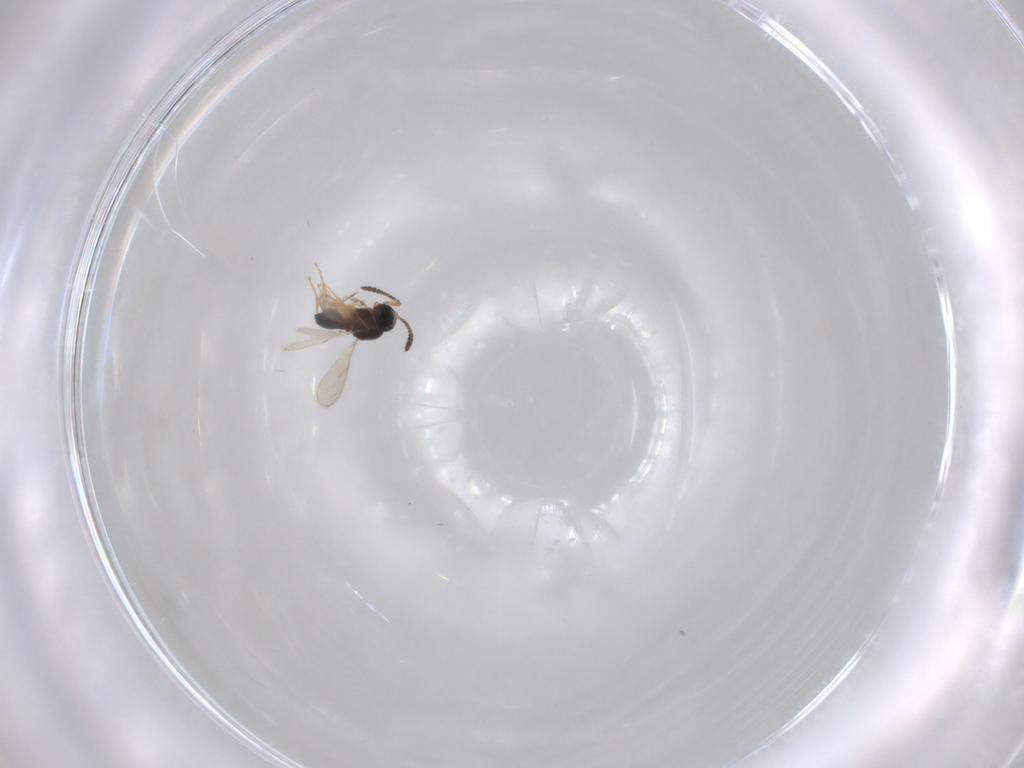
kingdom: Animalia
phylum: Arthropoda
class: Insecta
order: Hymenoptera
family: Scelionidae
